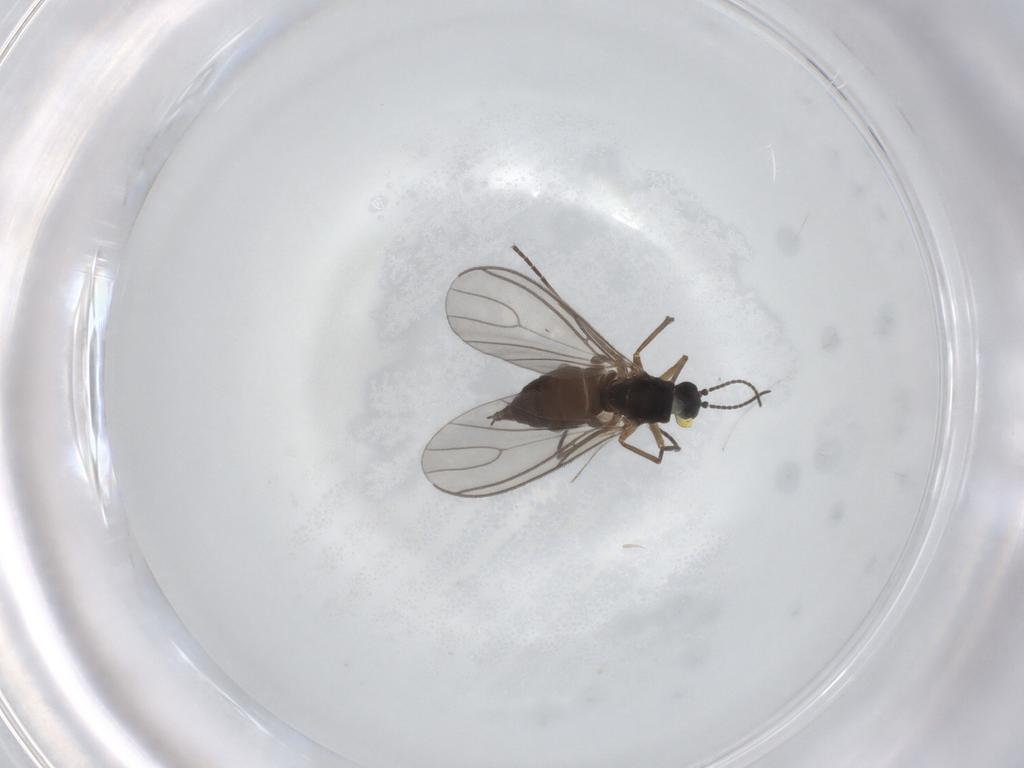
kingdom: Animalia
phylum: Arthropoda
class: Insecta
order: Diptera
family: Sciaridae
